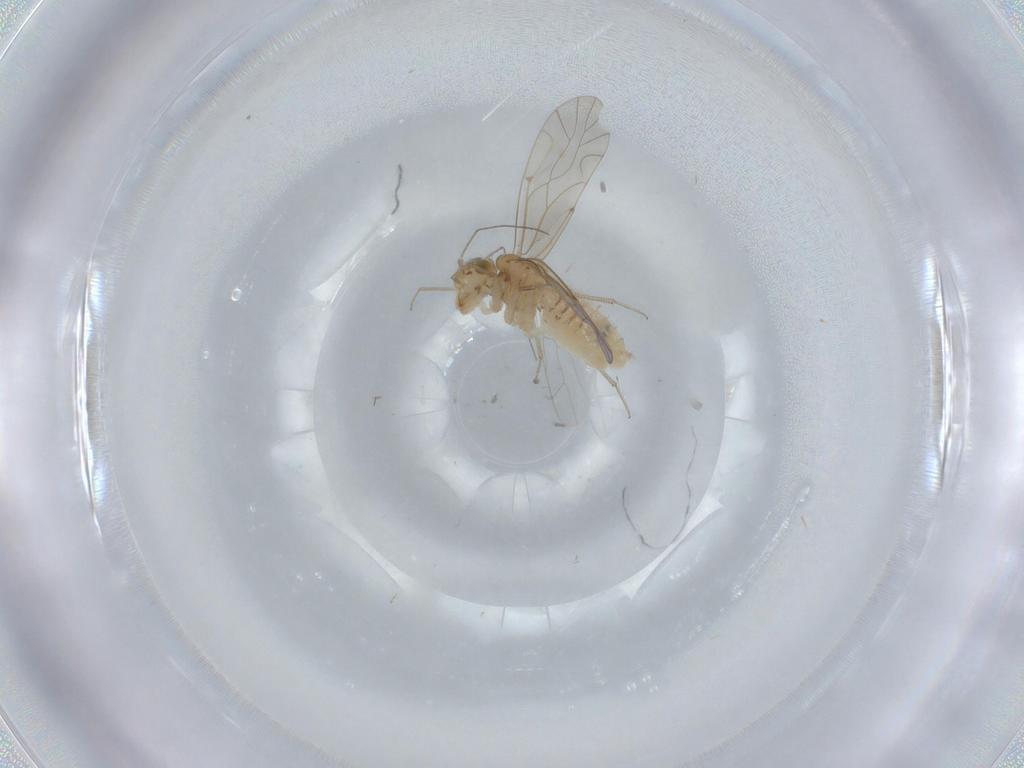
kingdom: Animalia
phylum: Arthropoda
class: Insecta
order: Psocodea
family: Lachesillidae
